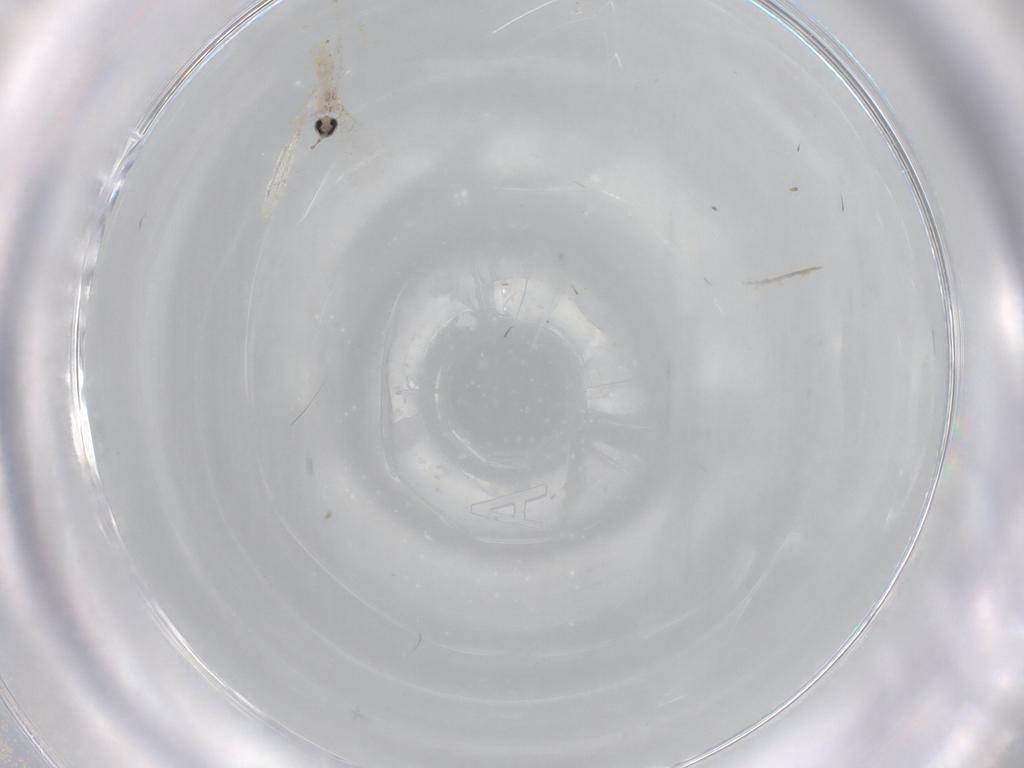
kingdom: Animalia
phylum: Arthropoda
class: Insecta
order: Diptera
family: Cecidomyiidae
